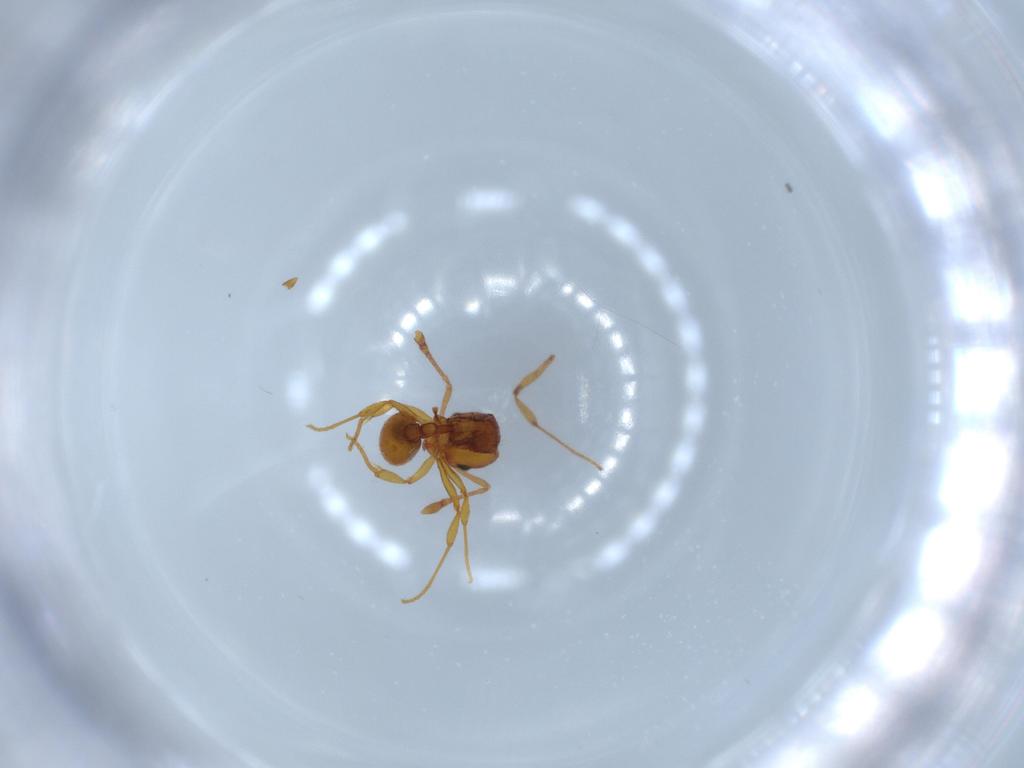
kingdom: Animalia
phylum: Arthropoda
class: Insecta
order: Hymenoptera
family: Formicidae
